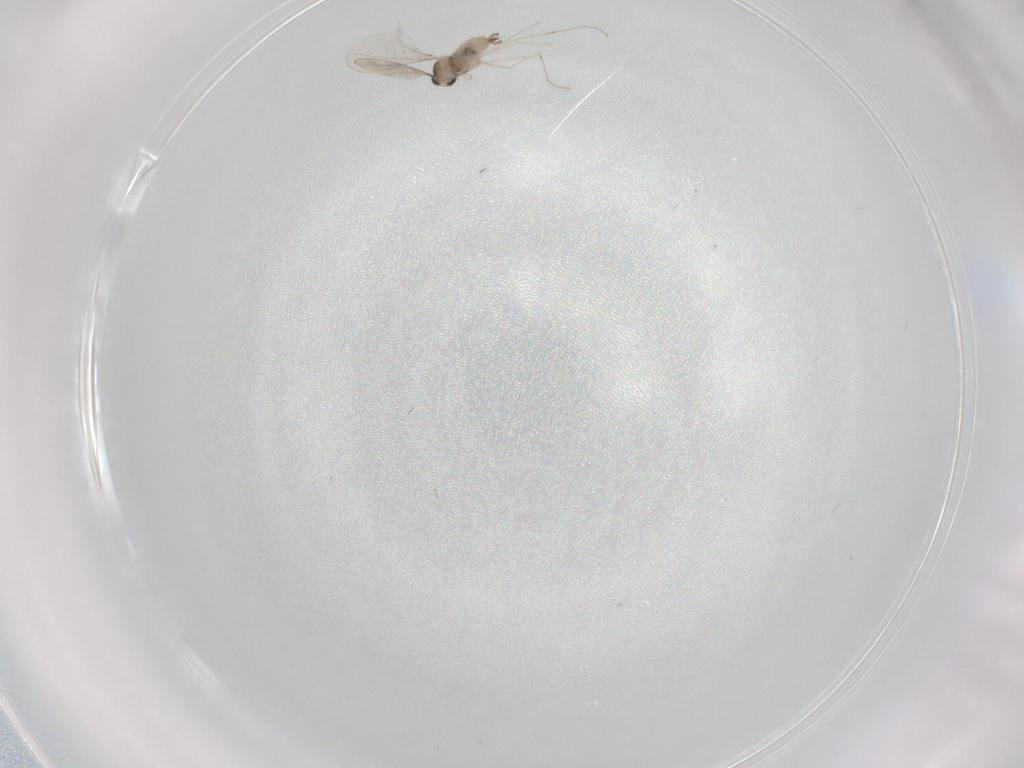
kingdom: Animalia
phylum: Arthropoda
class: Insecta
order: Diptera
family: Cecidomyiidae
